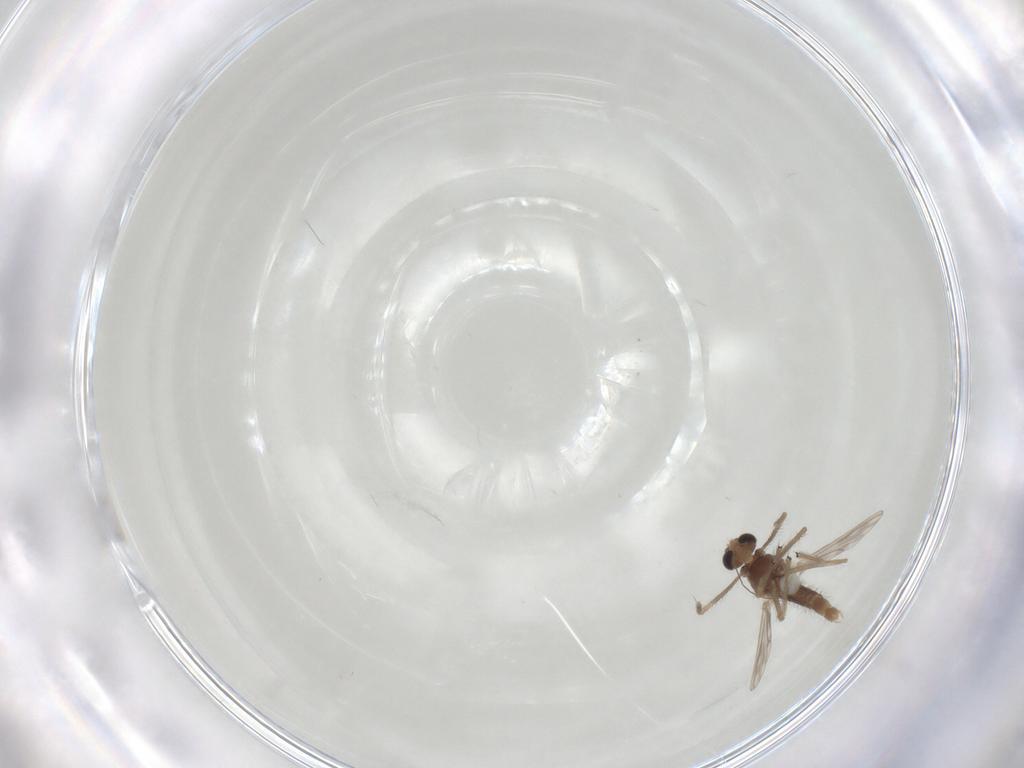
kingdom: Animalia
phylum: Arthropoda
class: Insecta
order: Diptera
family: Chironomidae
